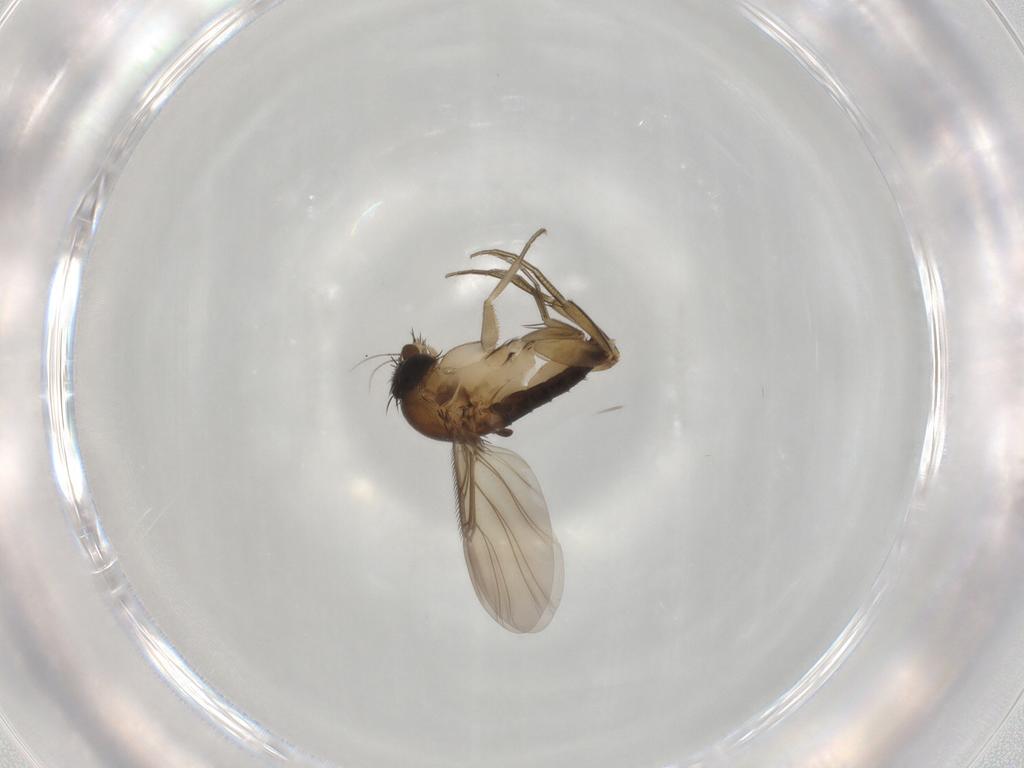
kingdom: Animalia
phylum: Arthropoda
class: Insecta
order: Diptera
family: Phoridae
